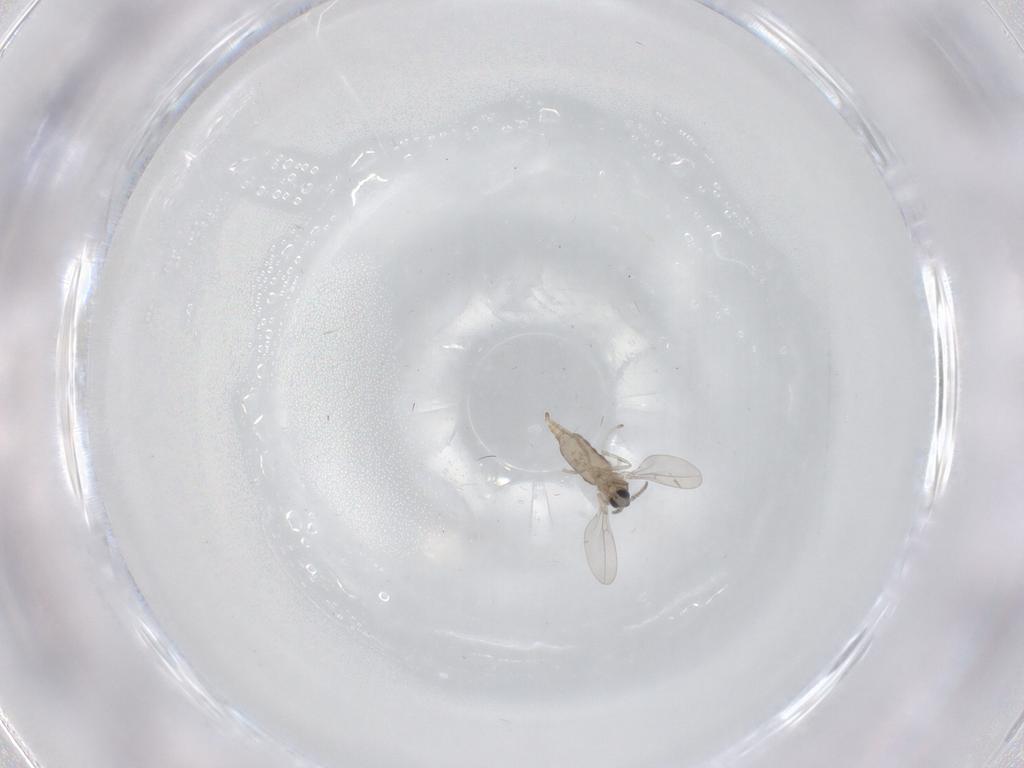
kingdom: Animalia
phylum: Arthropoda
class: Insecta
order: Diptera
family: Cecidomyiidae
